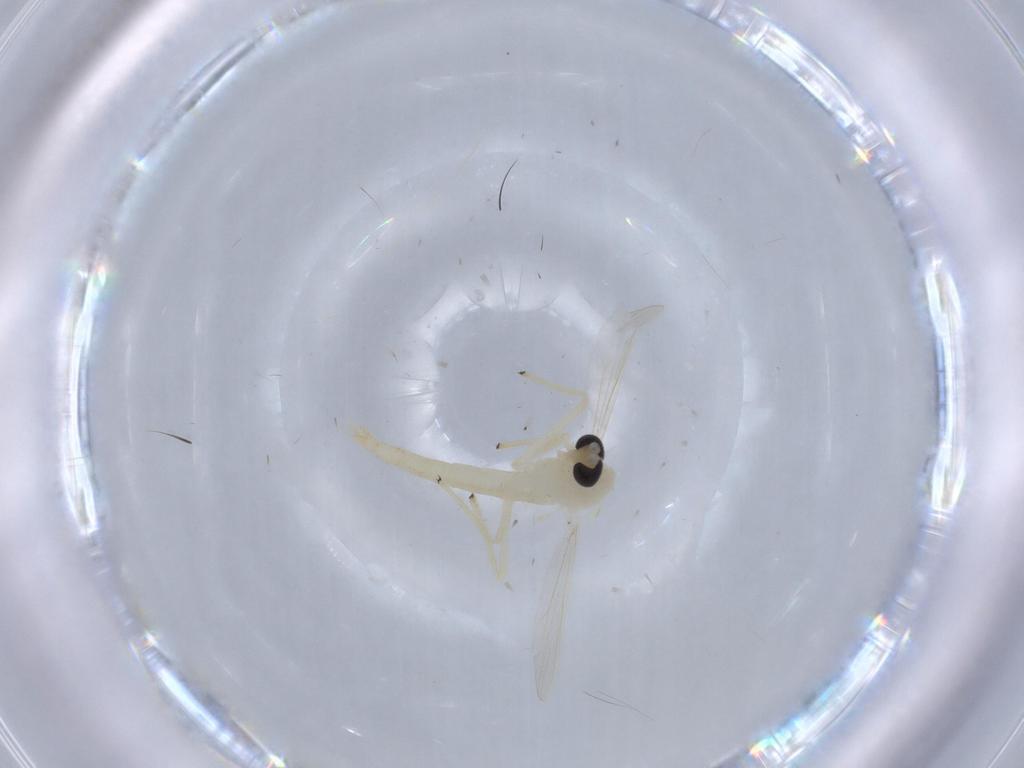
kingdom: Animalia
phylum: Arthropoda
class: Insecta
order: Diptera
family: Chironomidae
